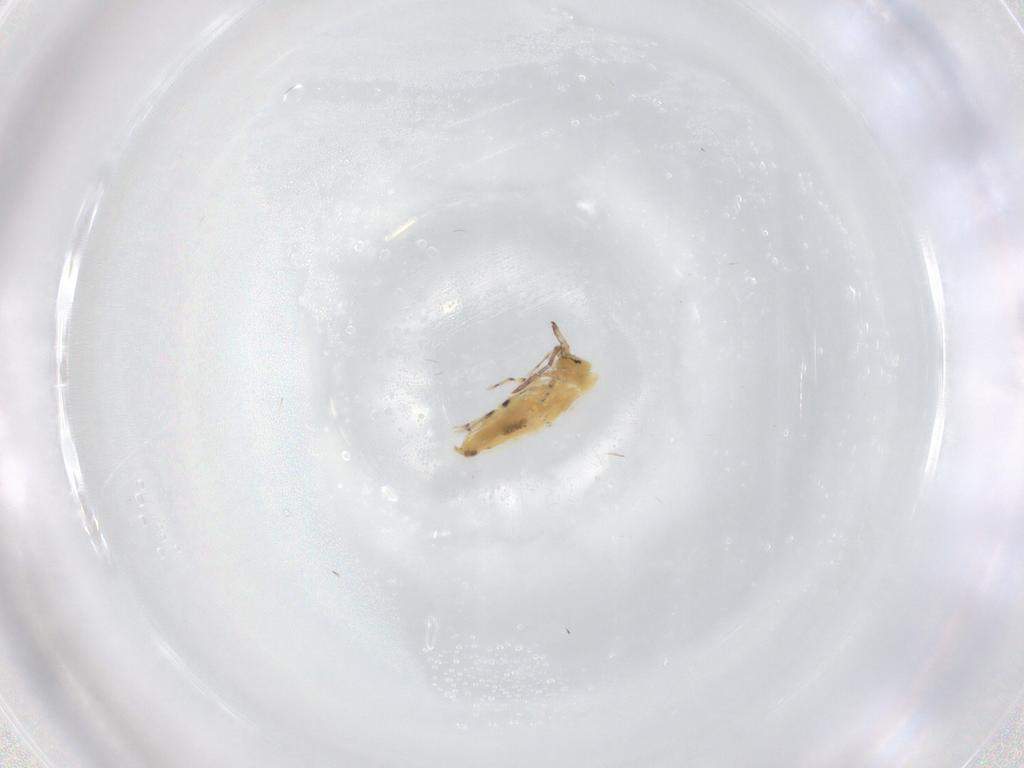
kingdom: Animalia
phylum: Arthropoda
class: Collembola
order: Entomobryomorpha
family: Entomobryidae
